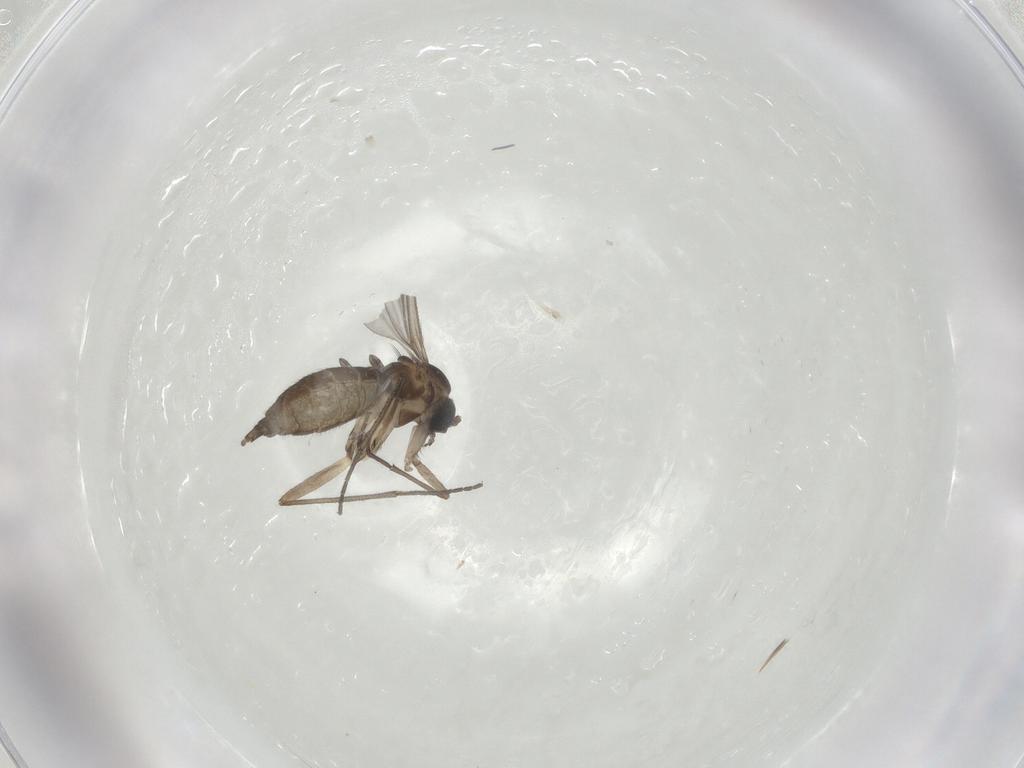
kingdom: Animalia
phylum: Arthropoda
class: Insecta
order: Diptera
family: Sciaridae
